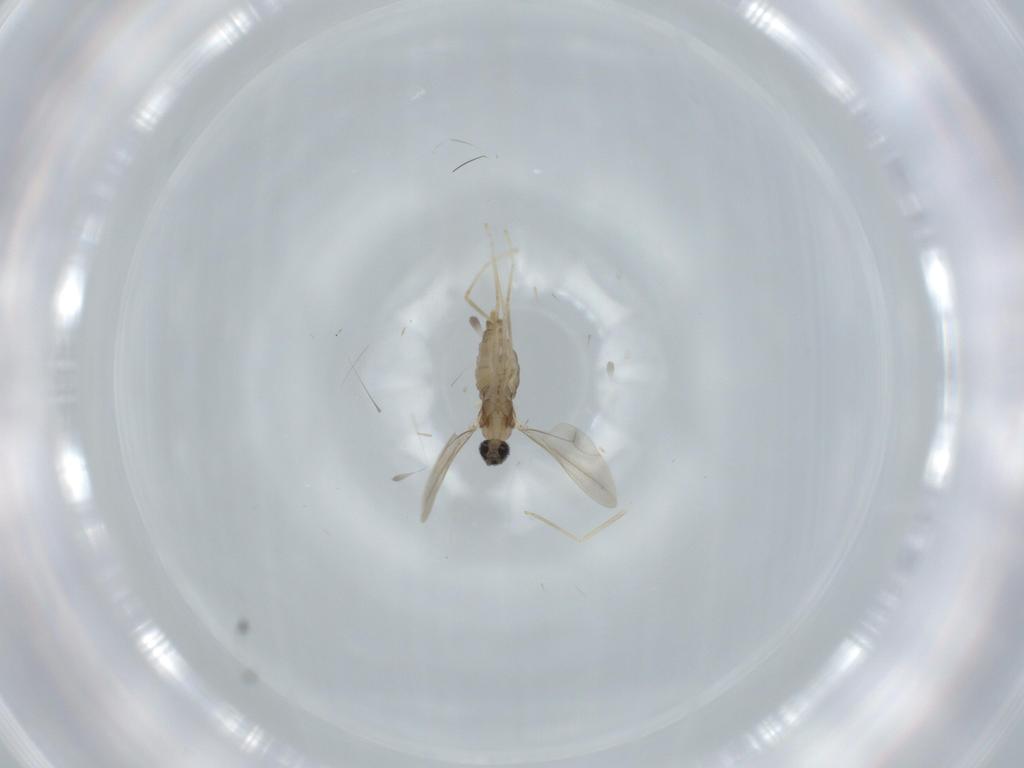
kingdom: Animalia
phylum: Arthropoda
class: Insecta
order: Diptera
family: Cecidomyiidae
